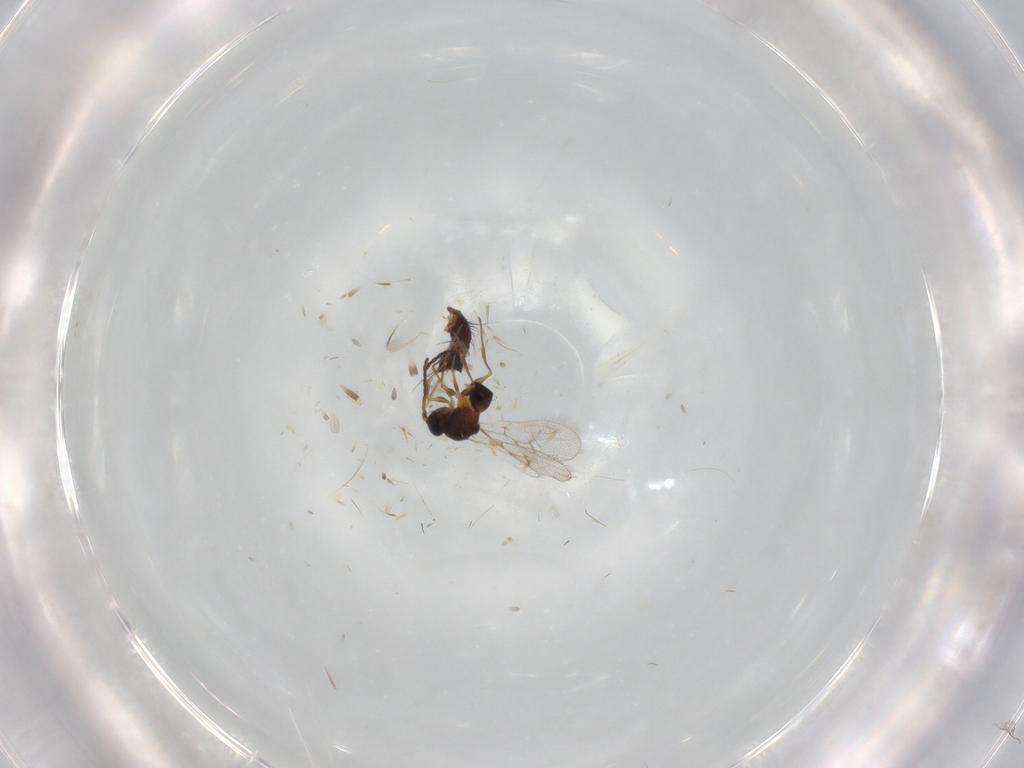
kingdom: Animalia
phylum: Arthropoda
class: Insecta
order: Hymenoptera
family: Figitidae
